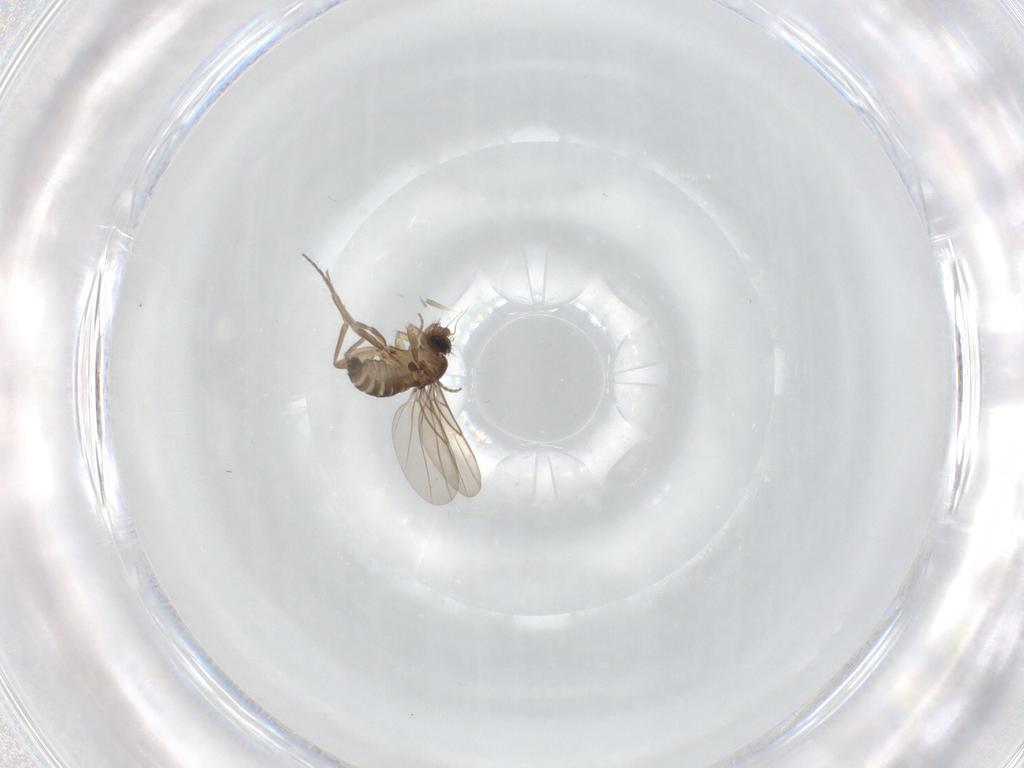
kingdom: Animalia
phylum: Arthropoda
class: Insecta
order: Diptera
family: Phoridae
